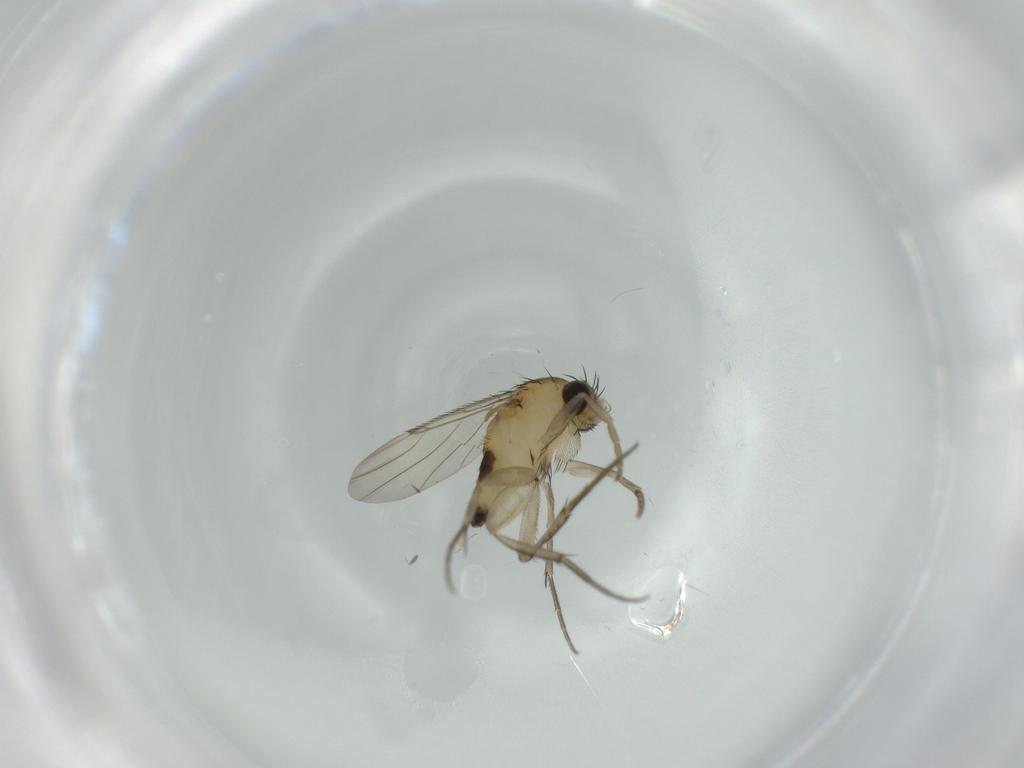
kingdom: Animalia
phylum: Arthropoda
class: Insecta
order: Diptera
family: Phoridae
